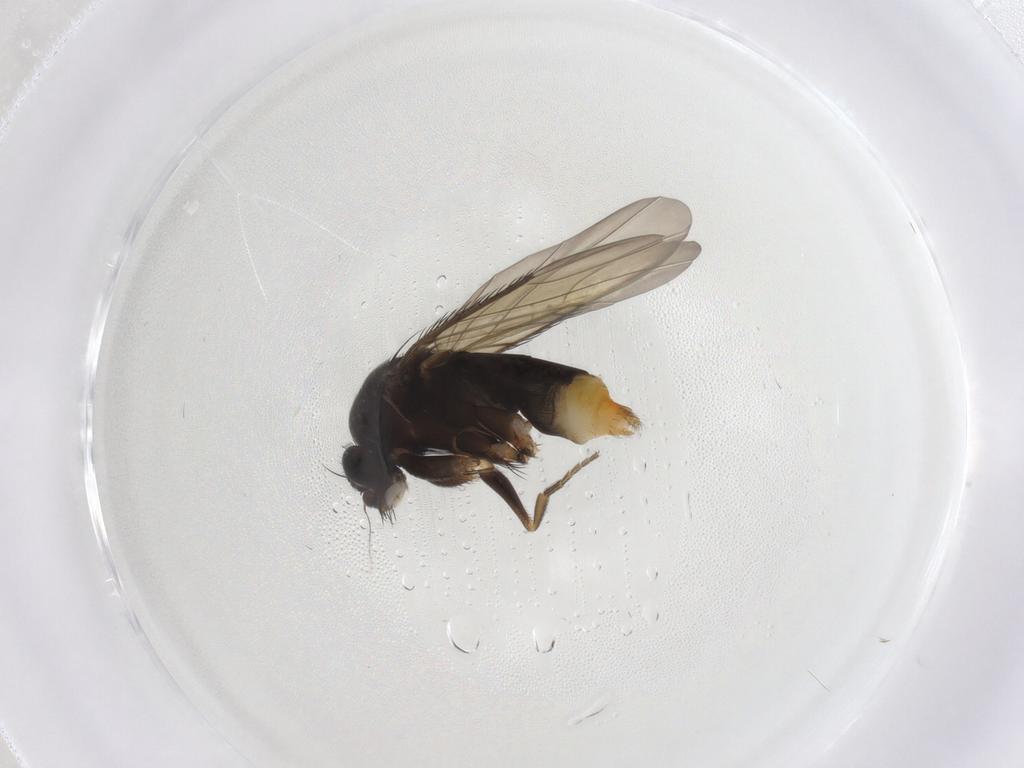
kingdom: Animalia
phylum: Arthropoda
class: Insecta
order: Diptera
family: Phoridae
